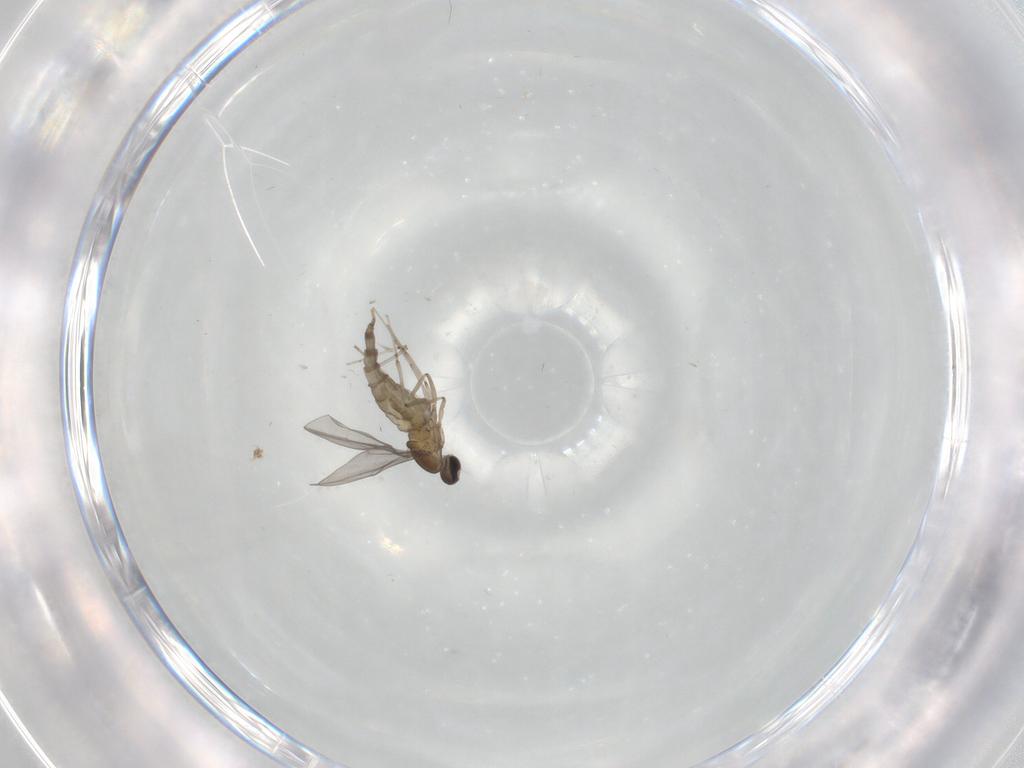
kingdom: Animalia
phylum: Arthropoda
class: Insecta
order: Diptera
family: Cecidomyiidae
